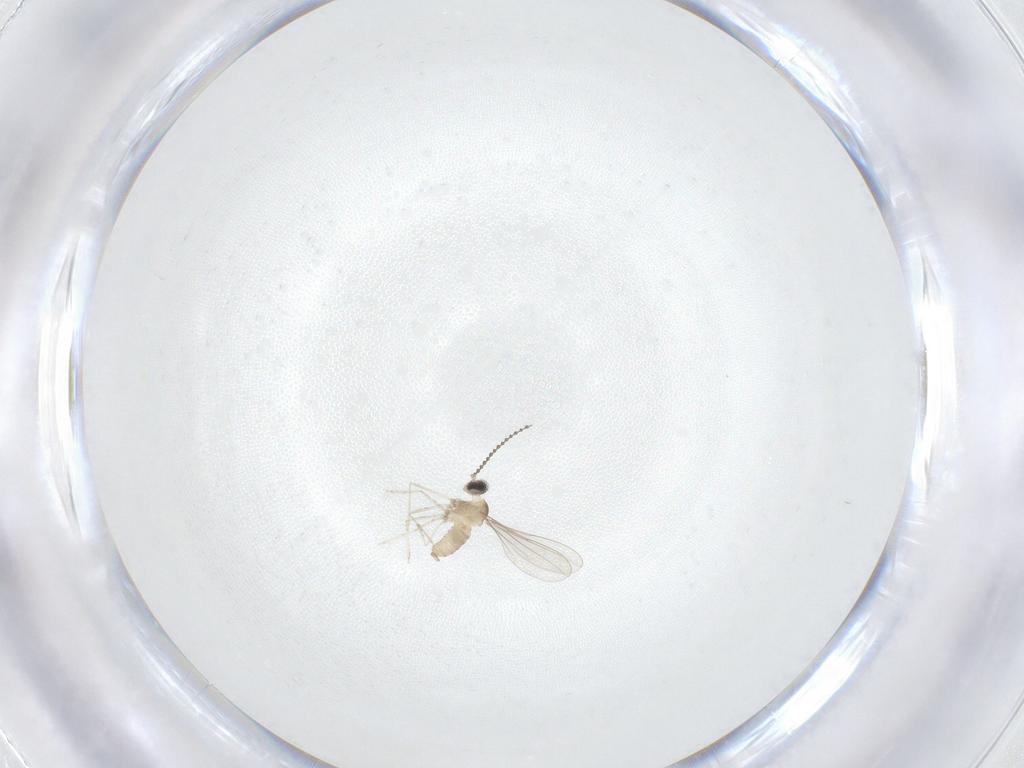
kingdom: Animalia
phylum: Arthropoda
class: Insecta
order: Diptera
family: Cecidomyiidae
